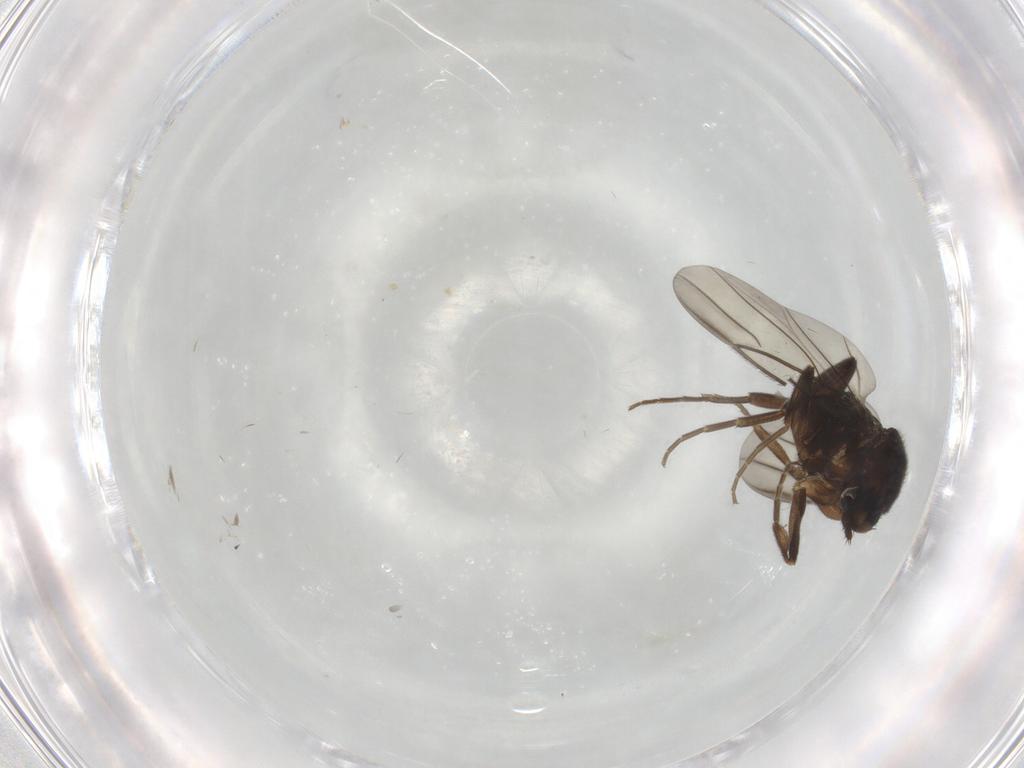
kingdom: Animalia
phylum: Arthropoda
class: Insecta
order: Diptera
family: Limoniidae
